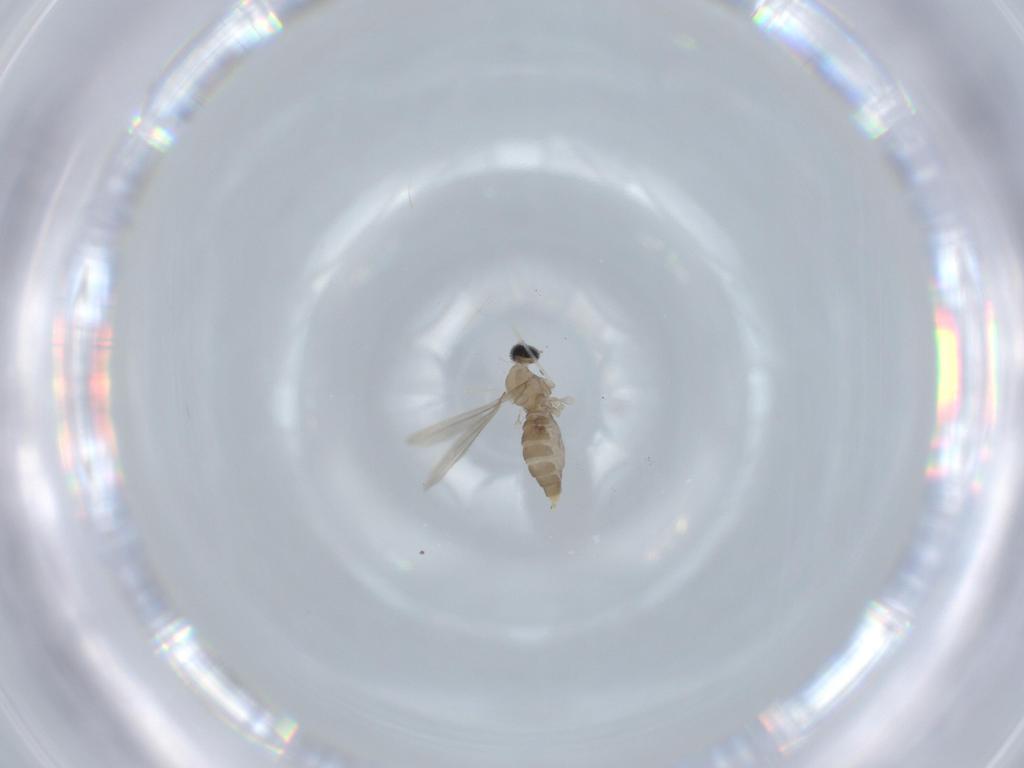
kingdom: Animalia
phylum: Arthropoda
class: Insecta
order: Diptera
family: Cecidomyiidae
